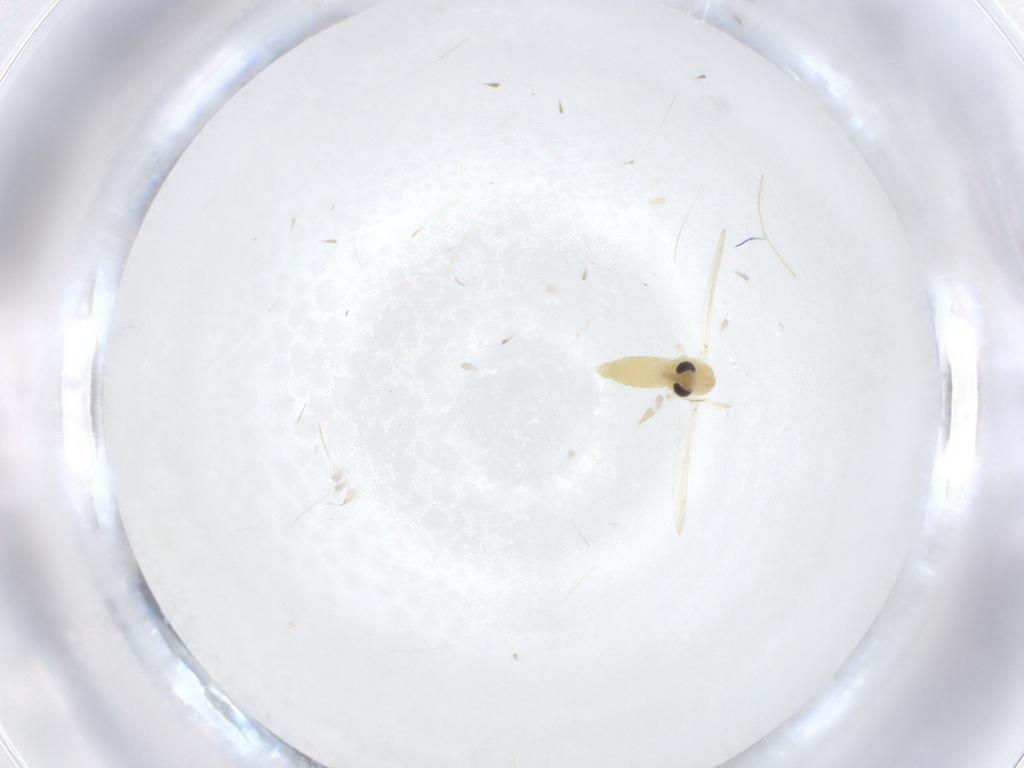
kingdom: Animalia
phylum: Arthropoda
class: Insecta
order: Diptera
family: Chironomidae
